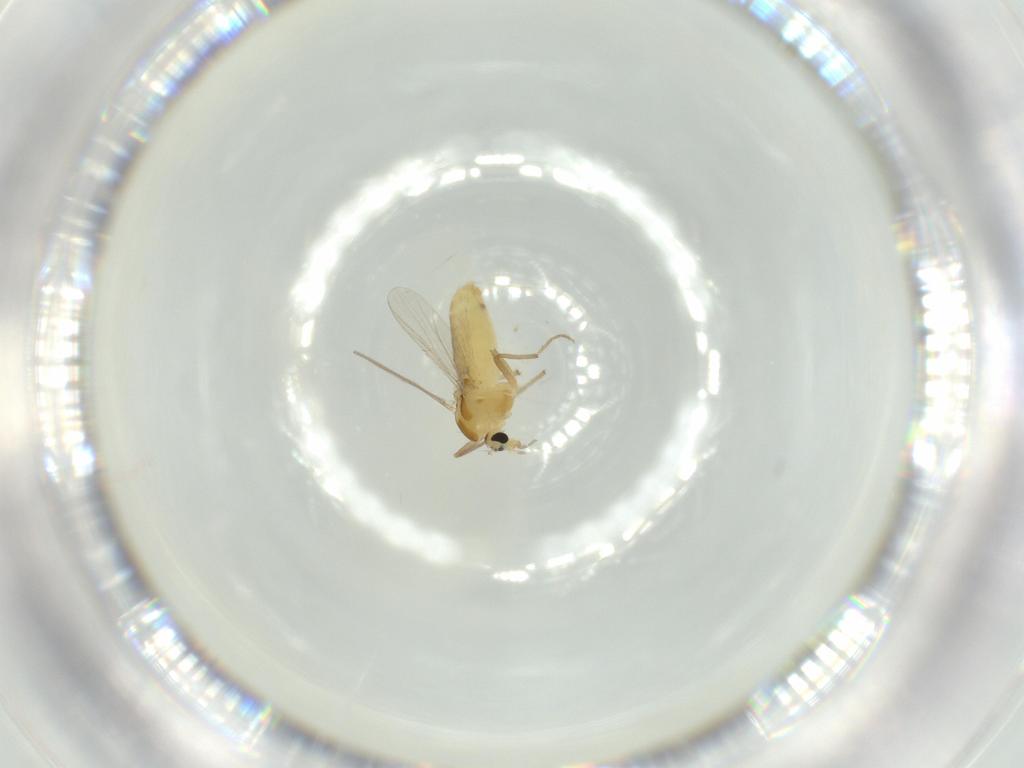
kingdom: Animalia
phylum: Arthropoda
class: Insecta
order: Diptera
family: Chironomidae
